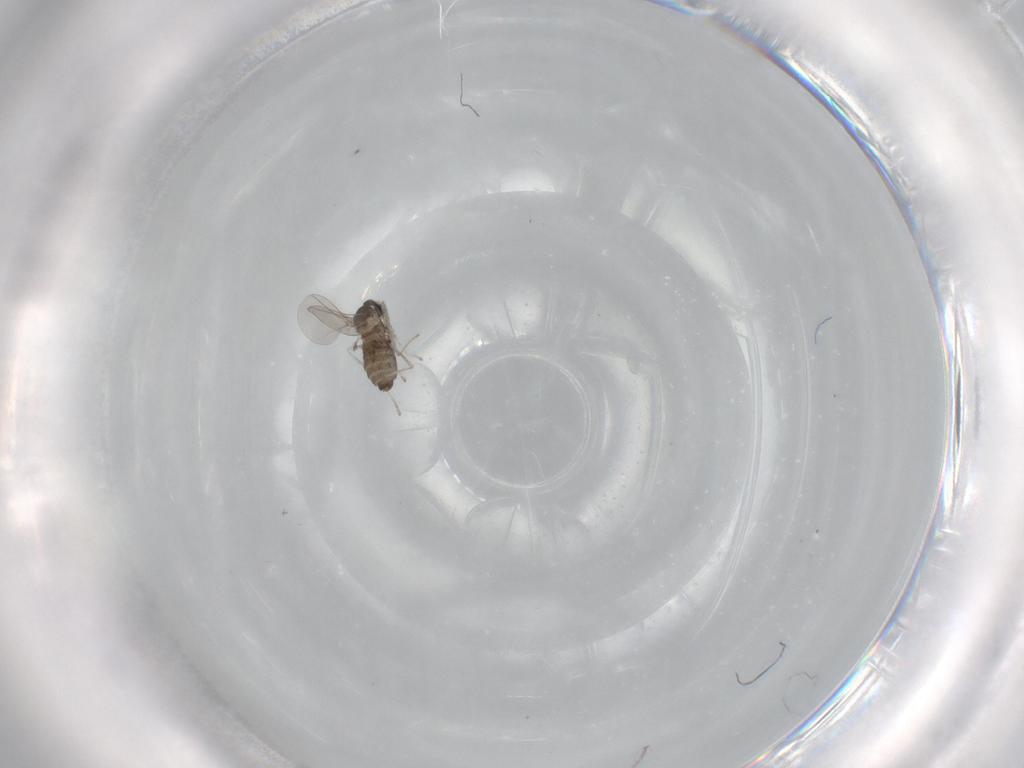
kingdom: Animalia
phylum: Arthropoda
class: Insecta
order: Diptera
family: Cecidomyiidae
